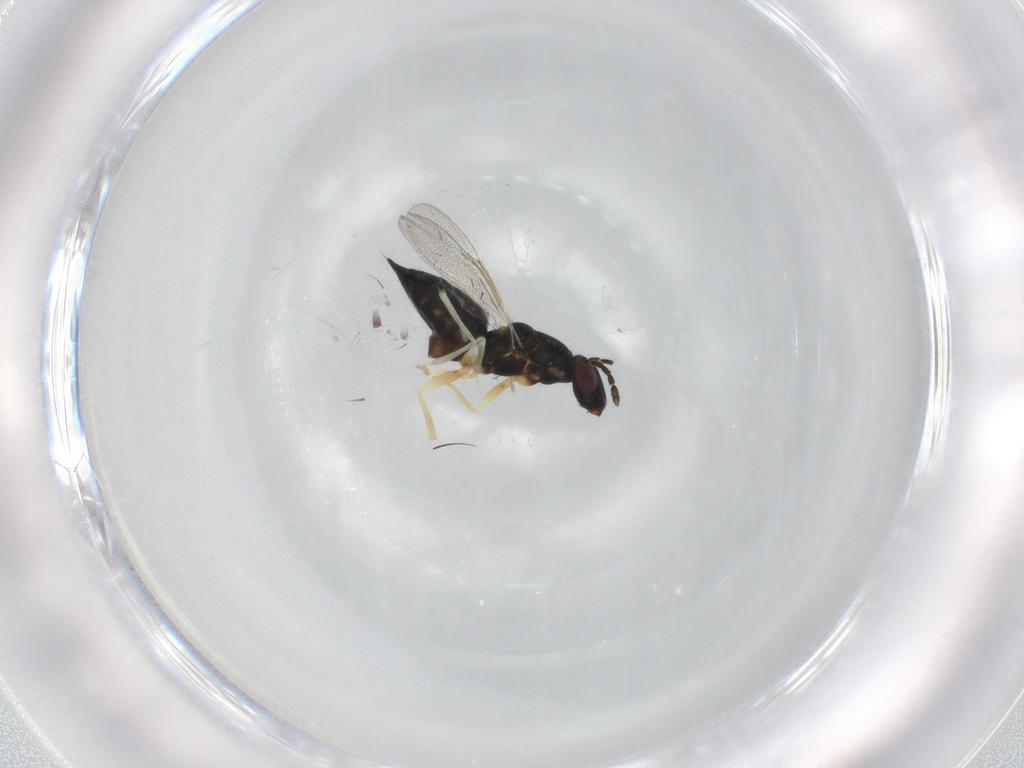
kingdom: Animalia
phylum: Arthropoda
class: Insecta
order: Hymenoptera
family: Eulophidae
